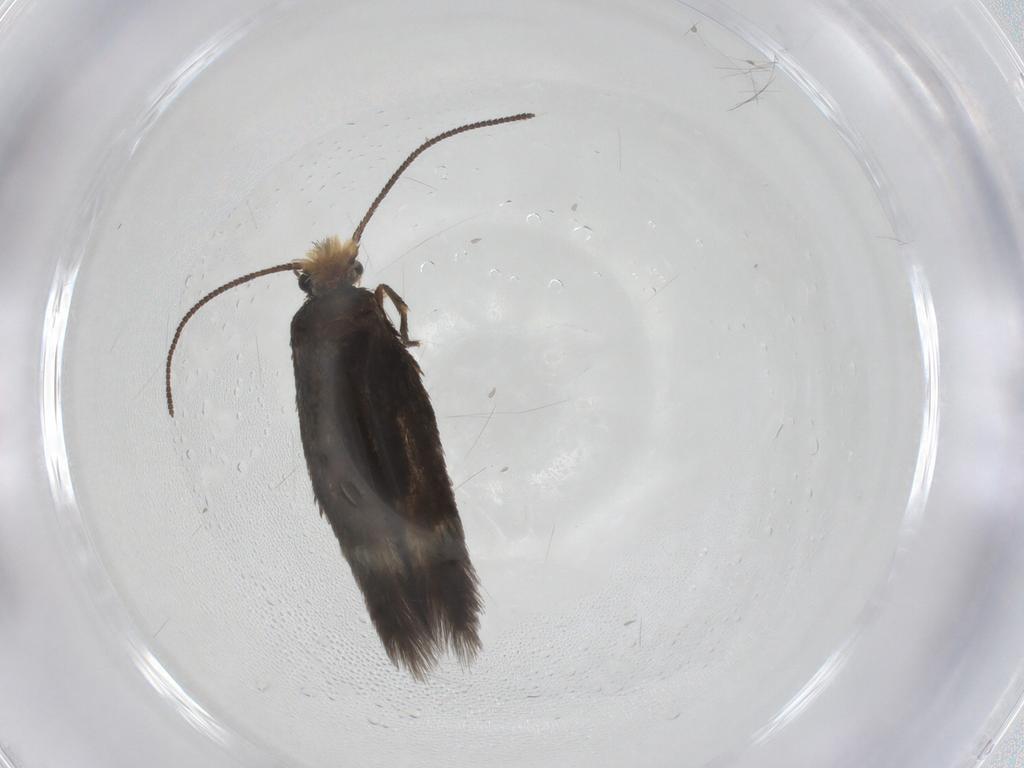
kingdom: Animalia
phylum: Arthropoda
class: Insecta
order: Lepidoptera
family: Nepticulidae
